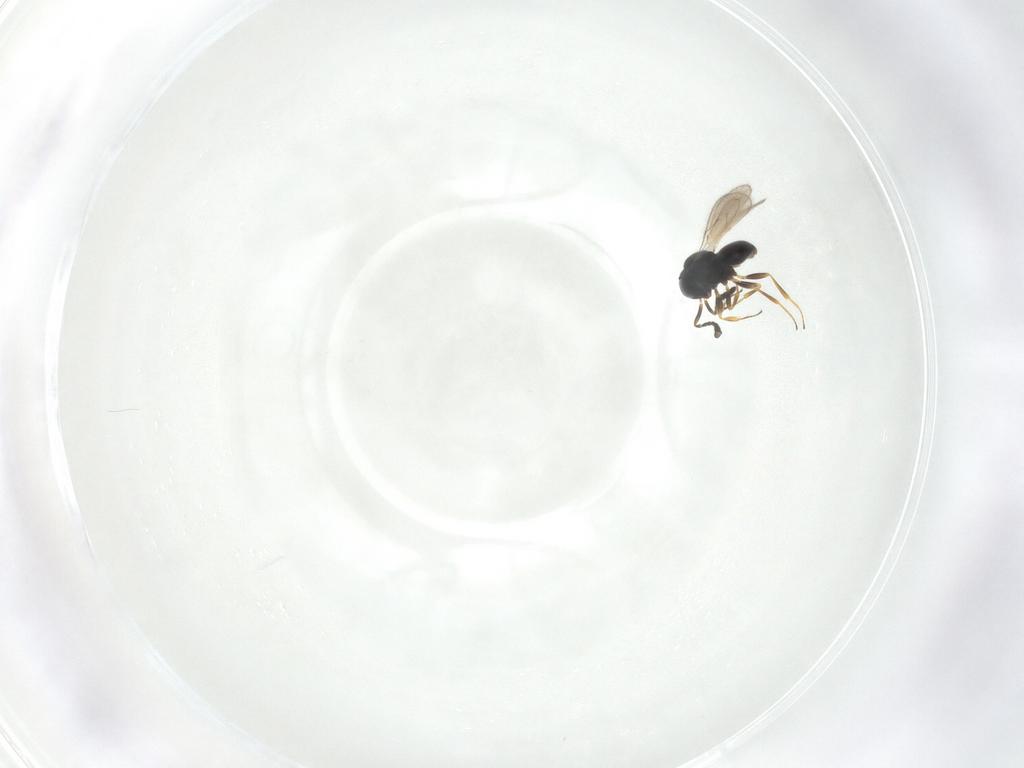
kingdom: Animalia
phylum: Arthropoda
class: Insecta
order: Hymenoptera
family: Scelionidae
